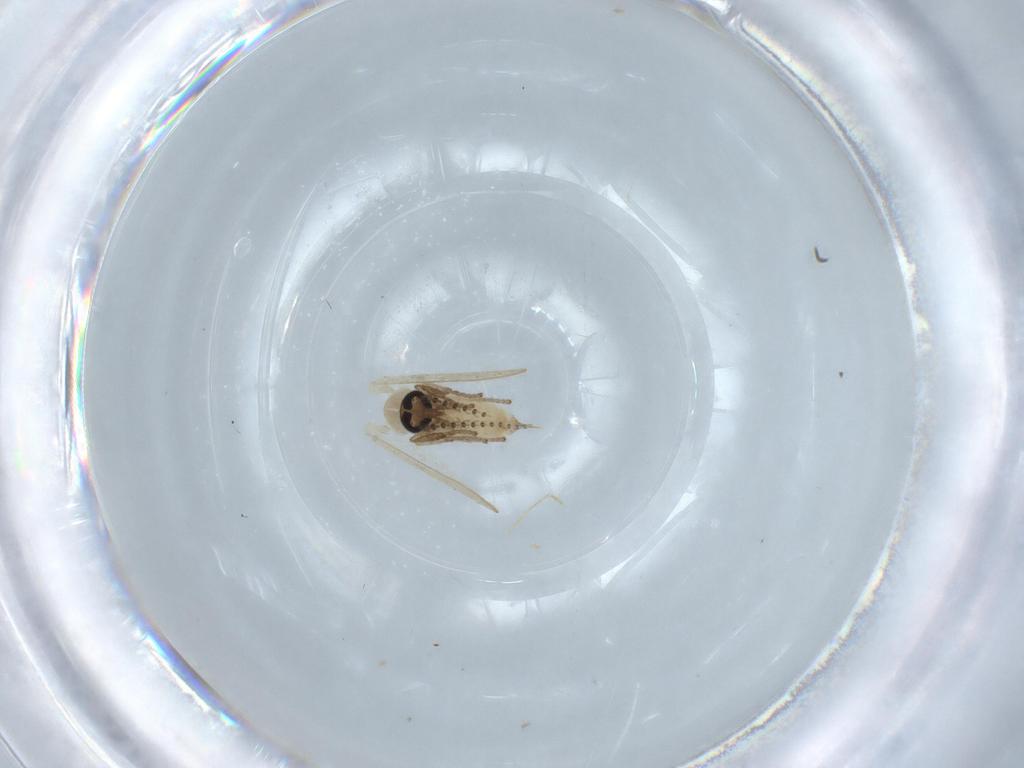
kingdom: Animalia
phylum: Arthropoda
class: Insecta
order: Diptera
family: Psychodidae
